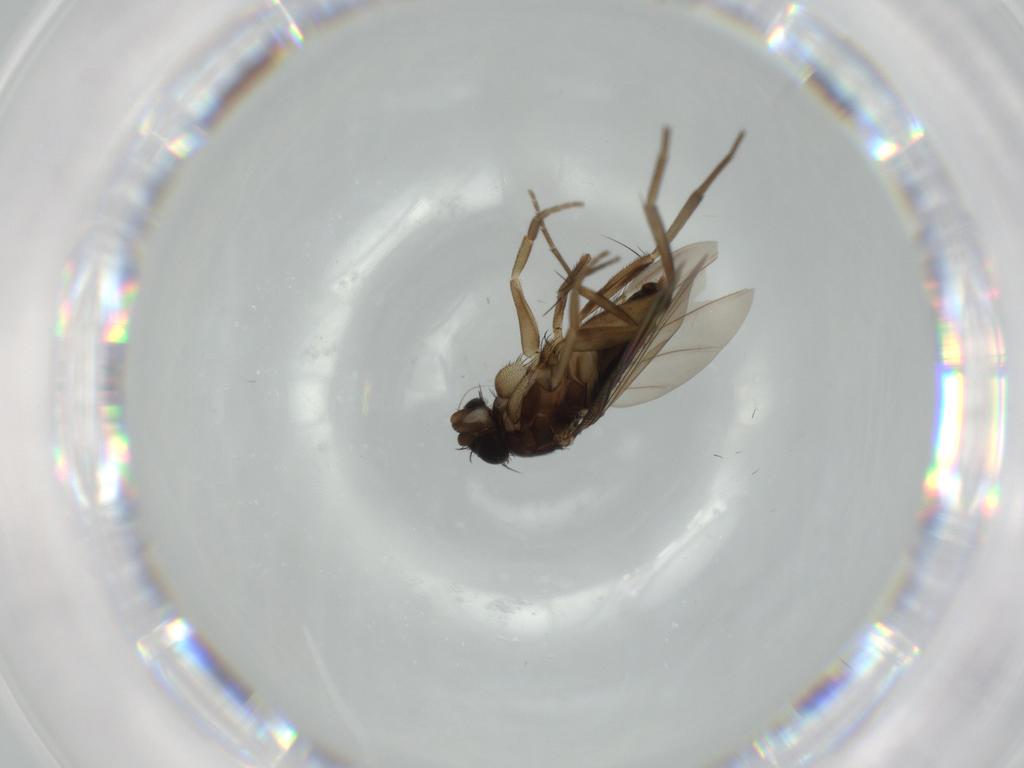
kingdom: Animalia
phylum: Arthropoda
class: Insecta
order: Diptera
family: Phoridae
